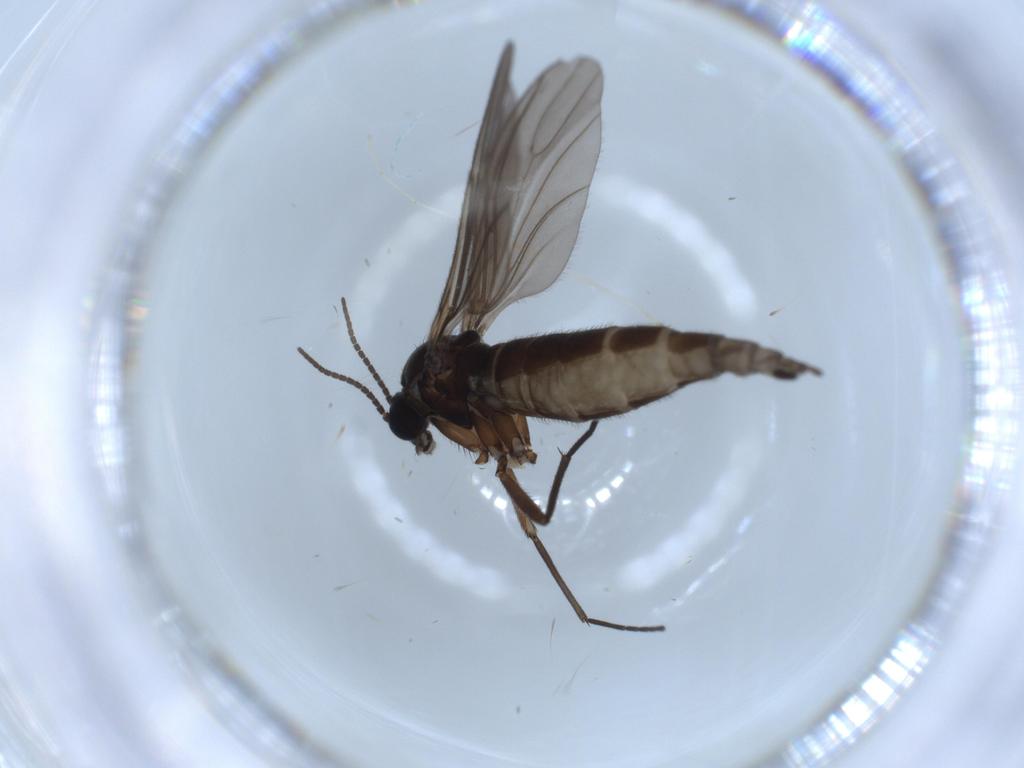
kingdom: Animalia
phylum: Arthropoda
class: Insecta
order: Diptera
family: Sciaridae
